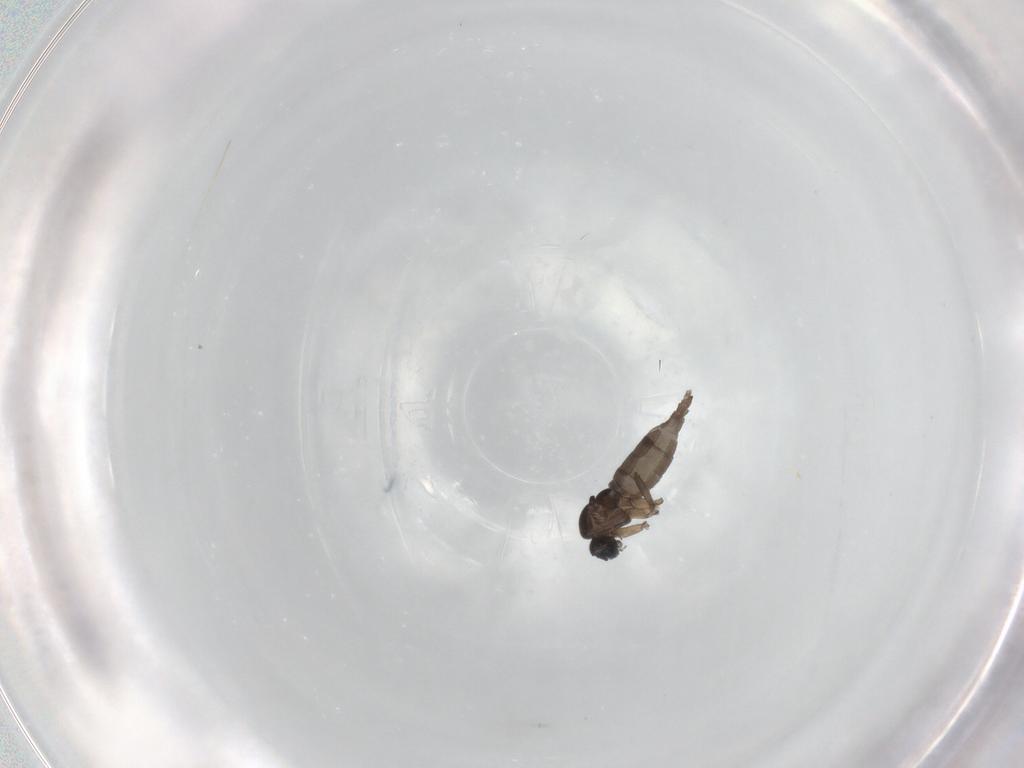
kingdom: Animalia
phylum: Arthropoda
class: Insecta
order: Diptera
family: Sciaridae
